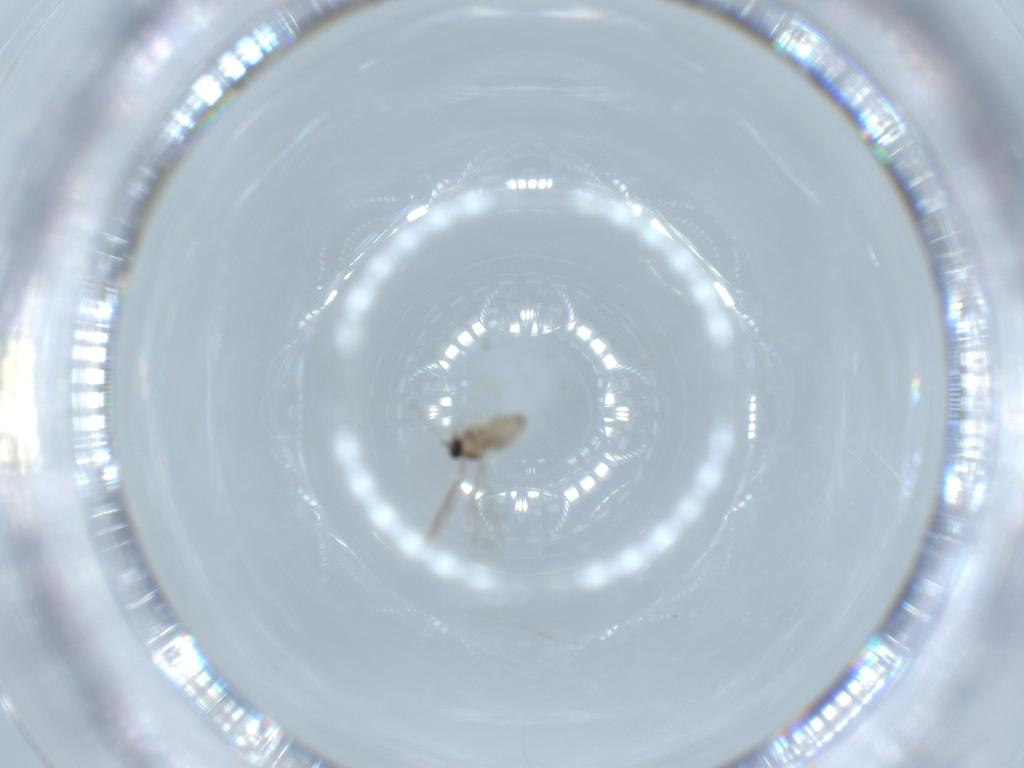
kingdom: Animalia
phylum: Arthropoda
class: Insecta
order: Diptera
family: Cecidomyiidae
